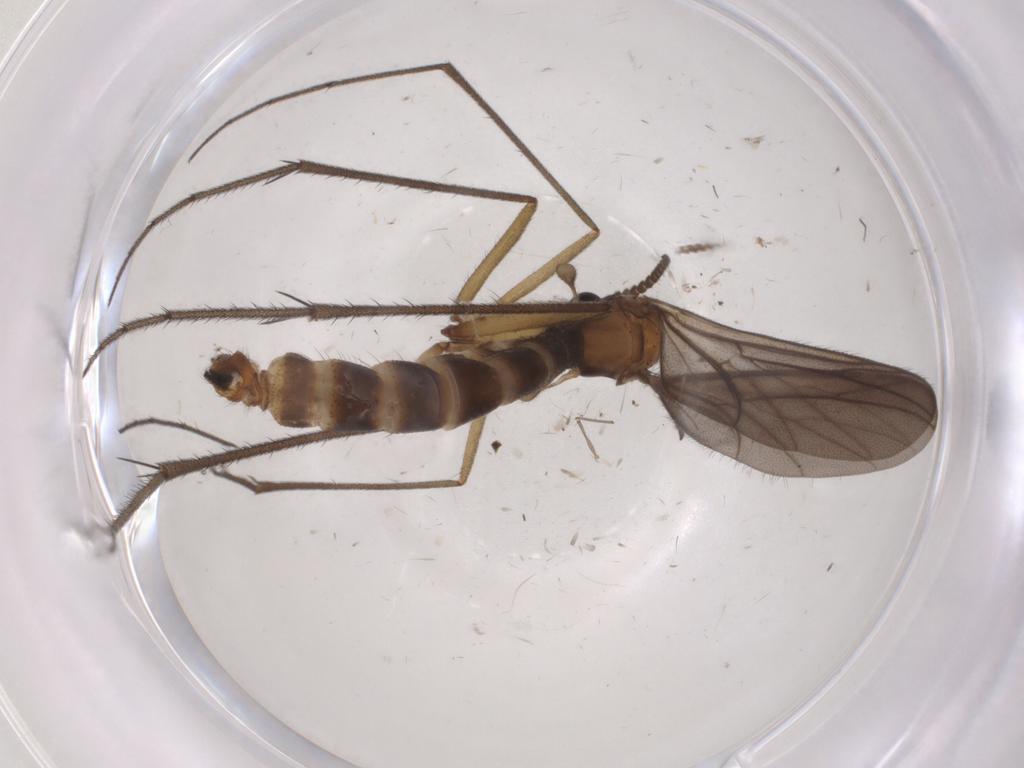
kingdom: Animalia
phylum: Arthropoda
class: Insecta
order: Diptera
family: Ditomyiidae
